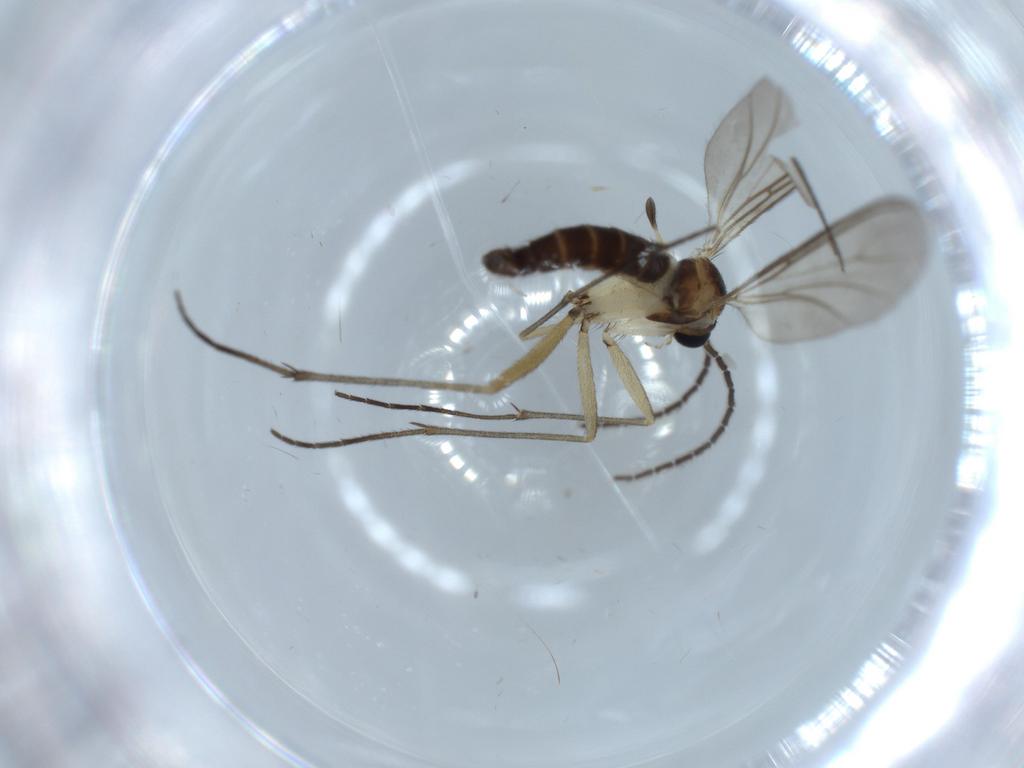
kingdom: Animalia
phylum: Arthropoda
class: Insecta
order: Diptera
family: Sciaridae
